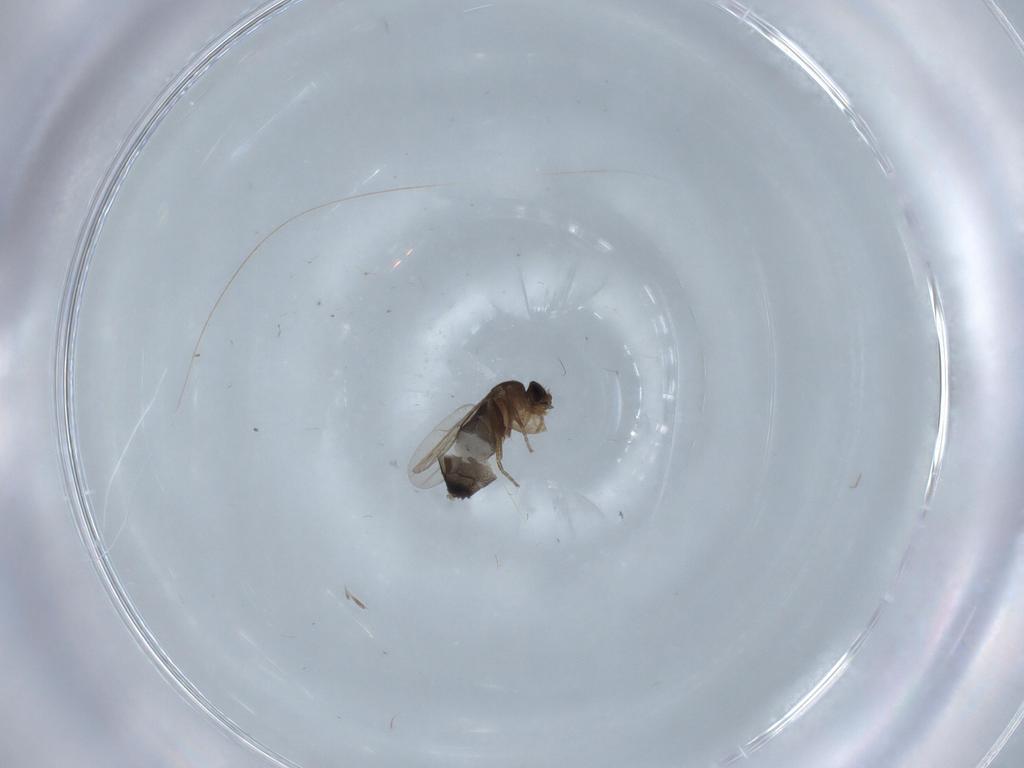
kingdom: Animalia
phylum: Arthropoda
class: Insecta
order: Diptera
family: Phoridae
